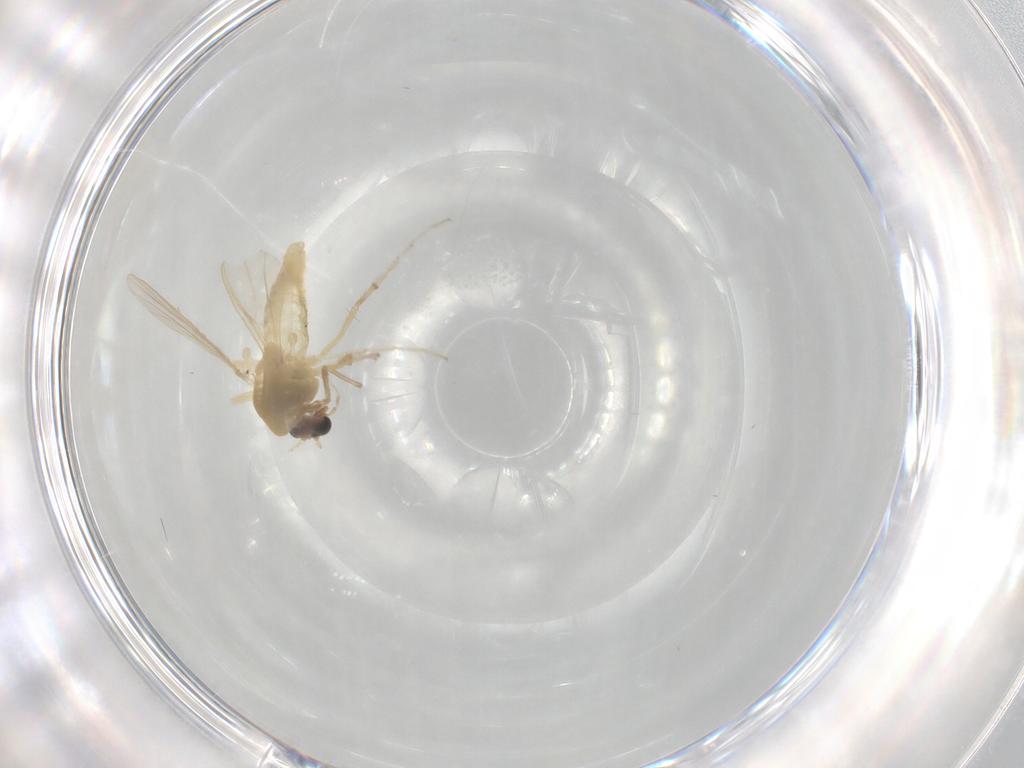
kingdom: Animalia
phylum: Arthropoda
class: Insecta
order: Diptera
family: Chironomidae
